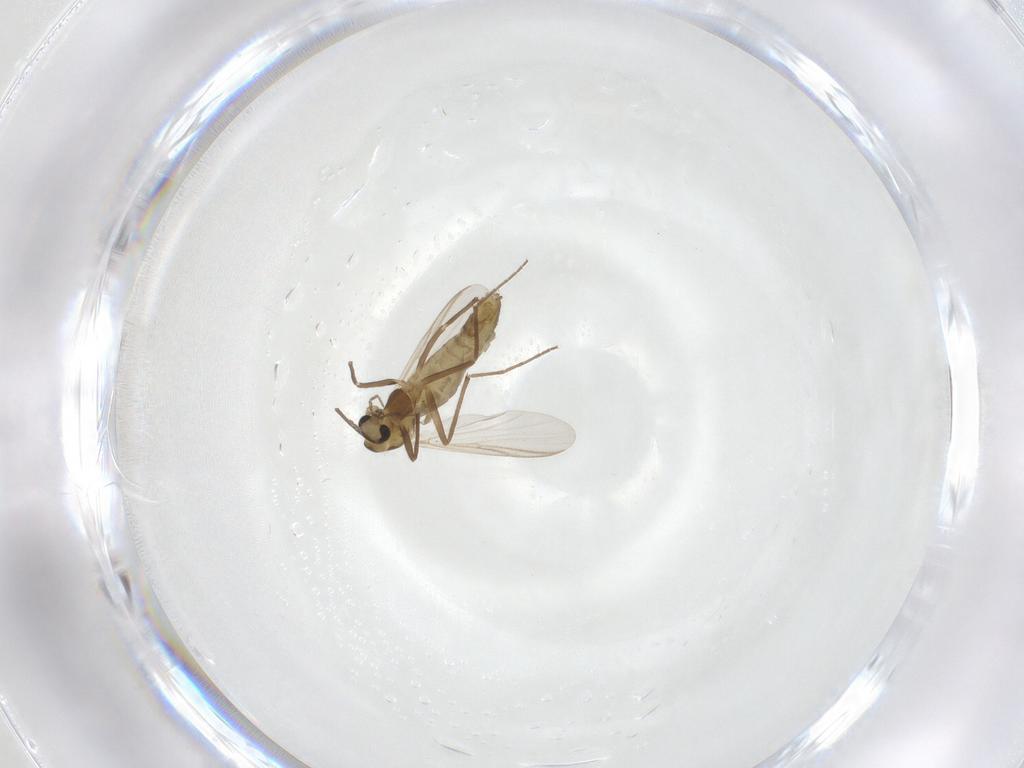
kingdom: Animalia
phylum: Arthropoda
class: Insecta
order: Diptera
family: Chironomidae
